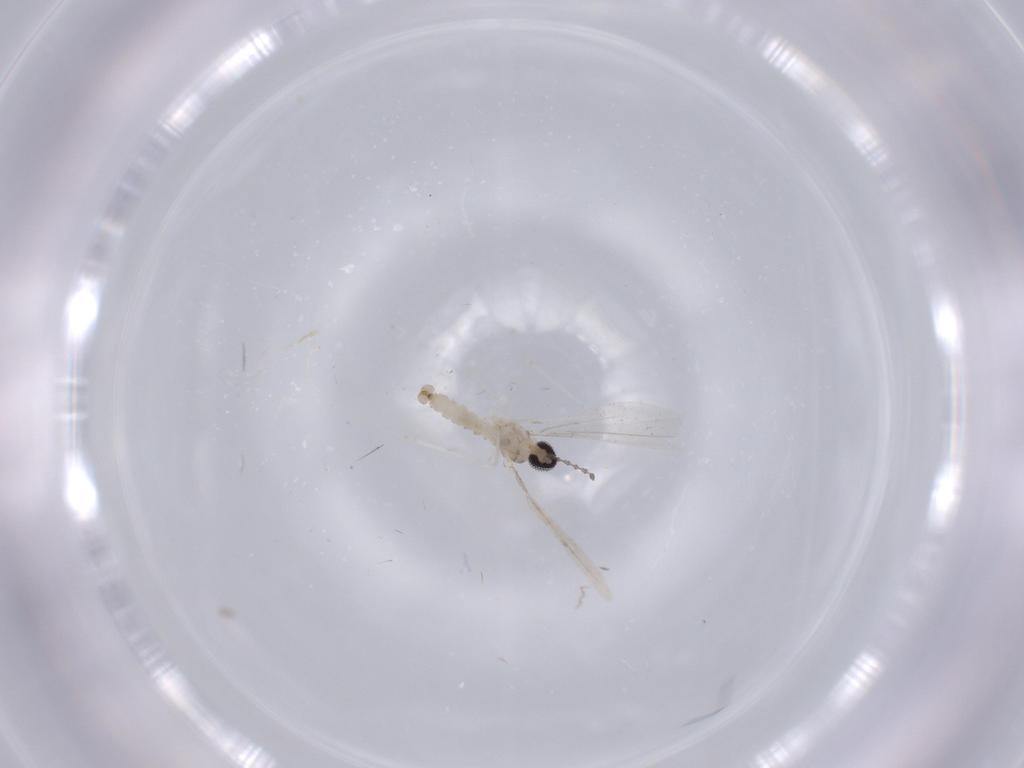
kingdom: Animalia
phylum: Arthropoda
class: Insecta
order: Diptera
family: Sciaridae
